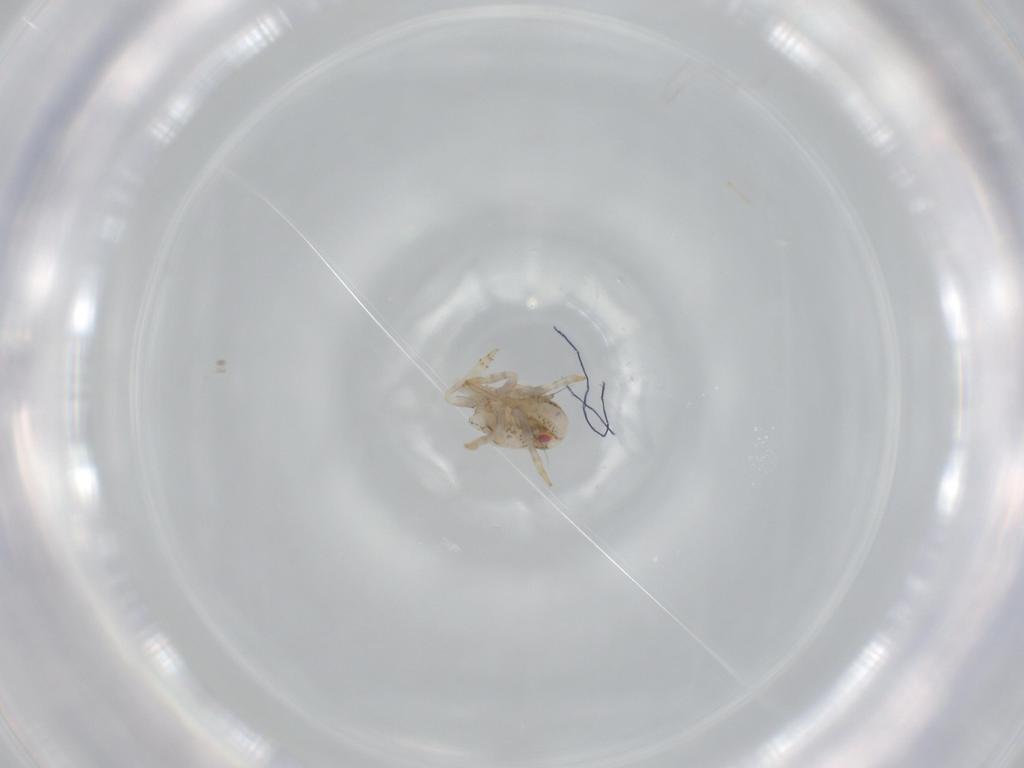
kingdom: Animalia
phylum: Arthropoda
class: Insecta
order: Hemiptera
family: Acanaloniidae
